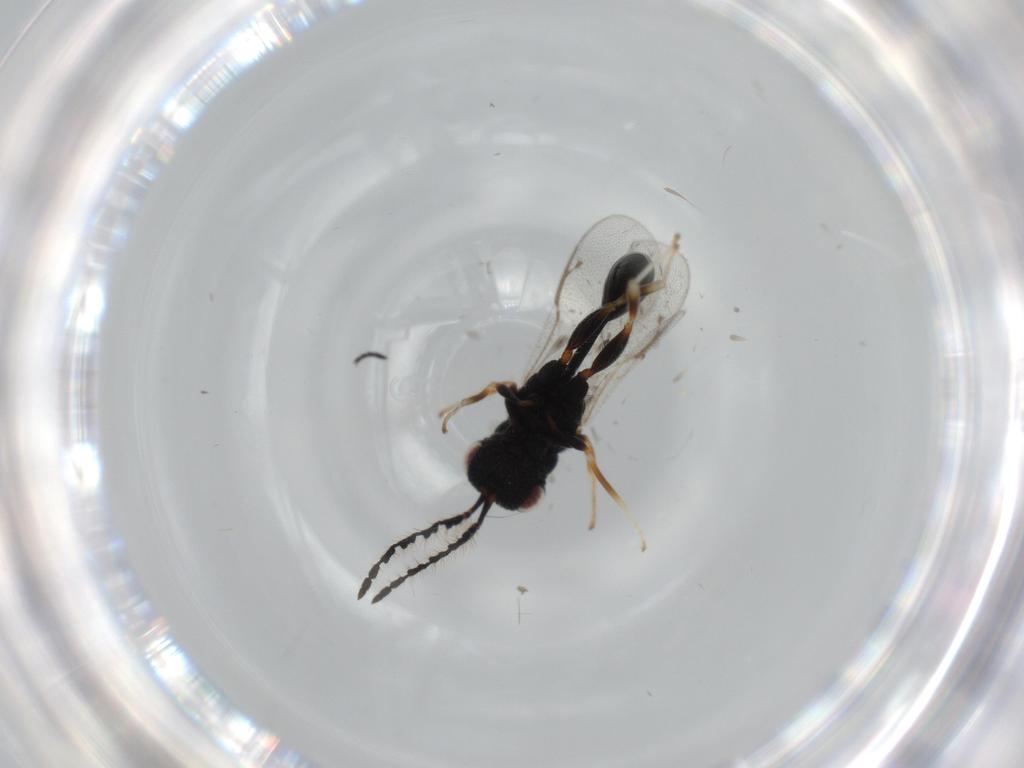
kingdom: Animalia
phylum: Arthropoda
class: Insecta
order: Hymenoptera
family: Eurytomidae
